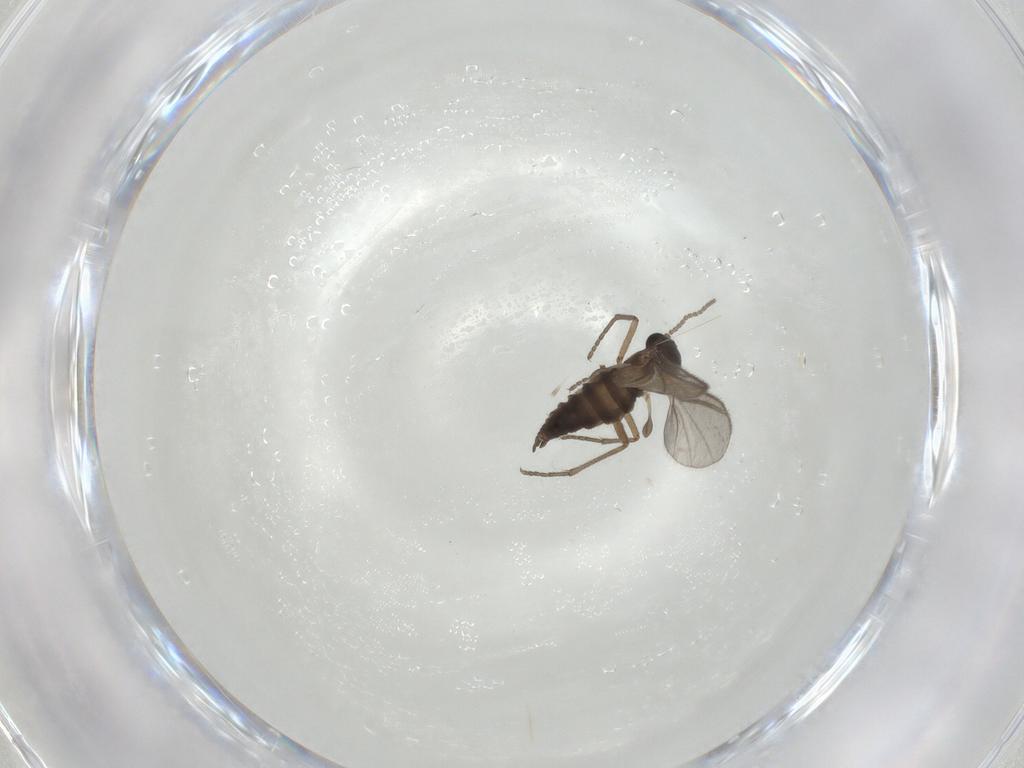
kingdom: Animalia
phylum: Arthropoda
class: Insecta
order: Diptera
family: Sciaridae
